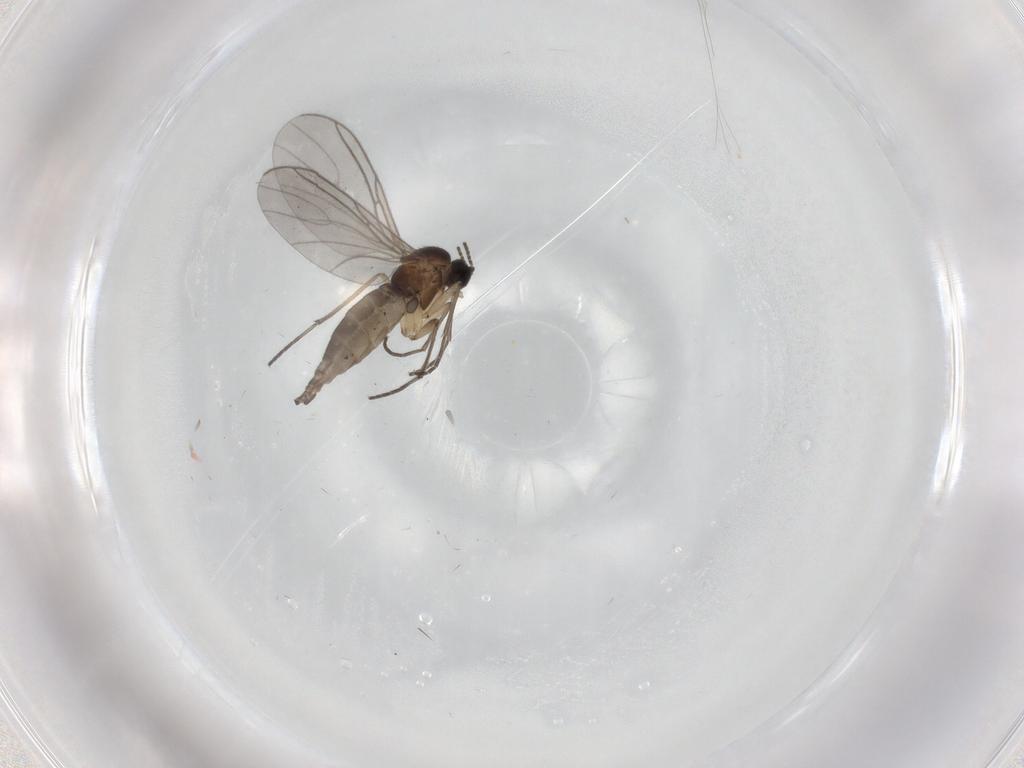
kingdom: Animalia
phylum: Arthropoda
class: Insecta
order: Diptera
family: Sciaridae
